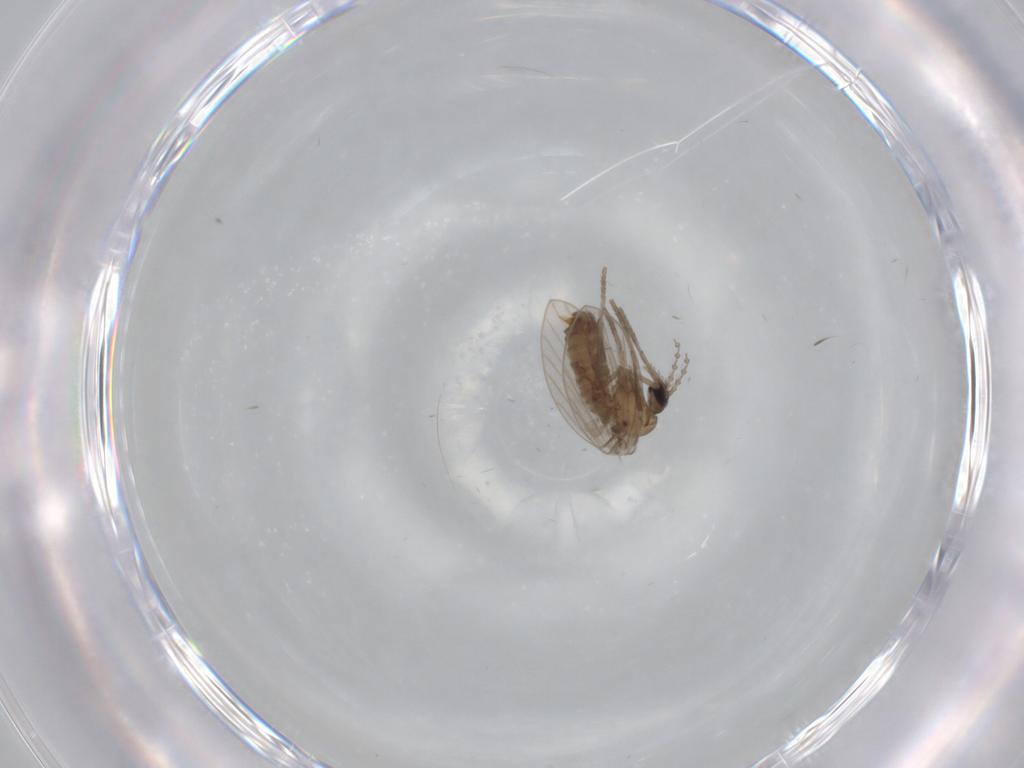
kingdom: Animalia
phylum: Arthropoda
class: Insecta
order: Diptera
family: Psychodidae
